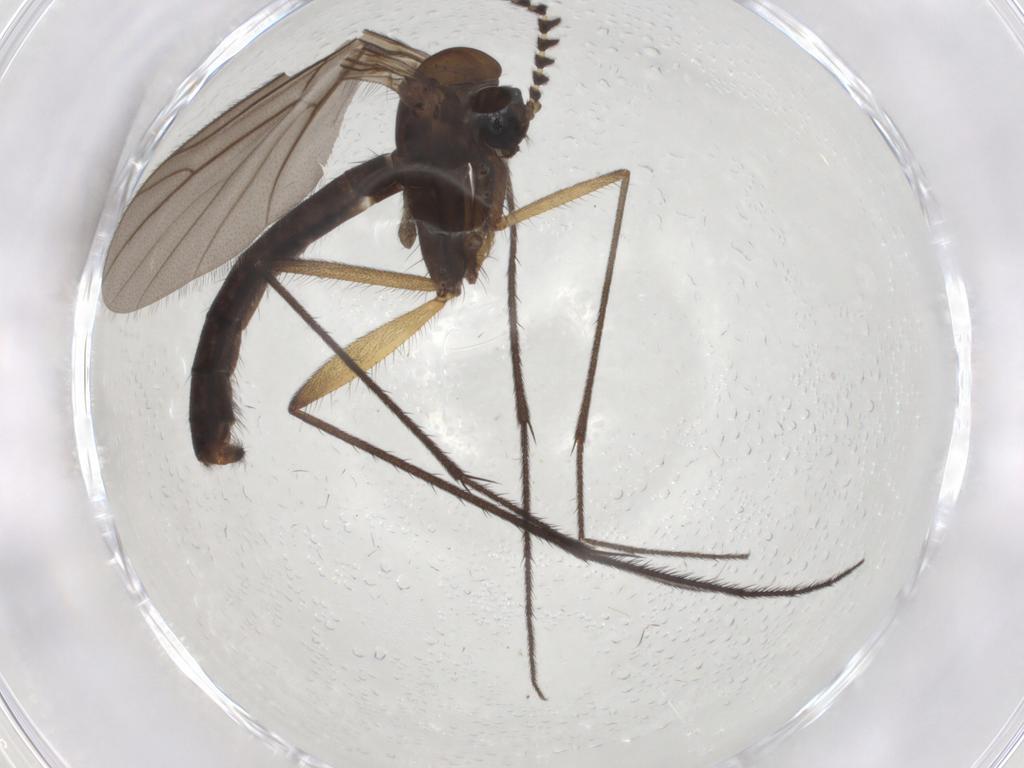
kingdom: Animalia
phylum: Arthropoda
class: Insecta
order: Diptera
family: Ditomyiidae
